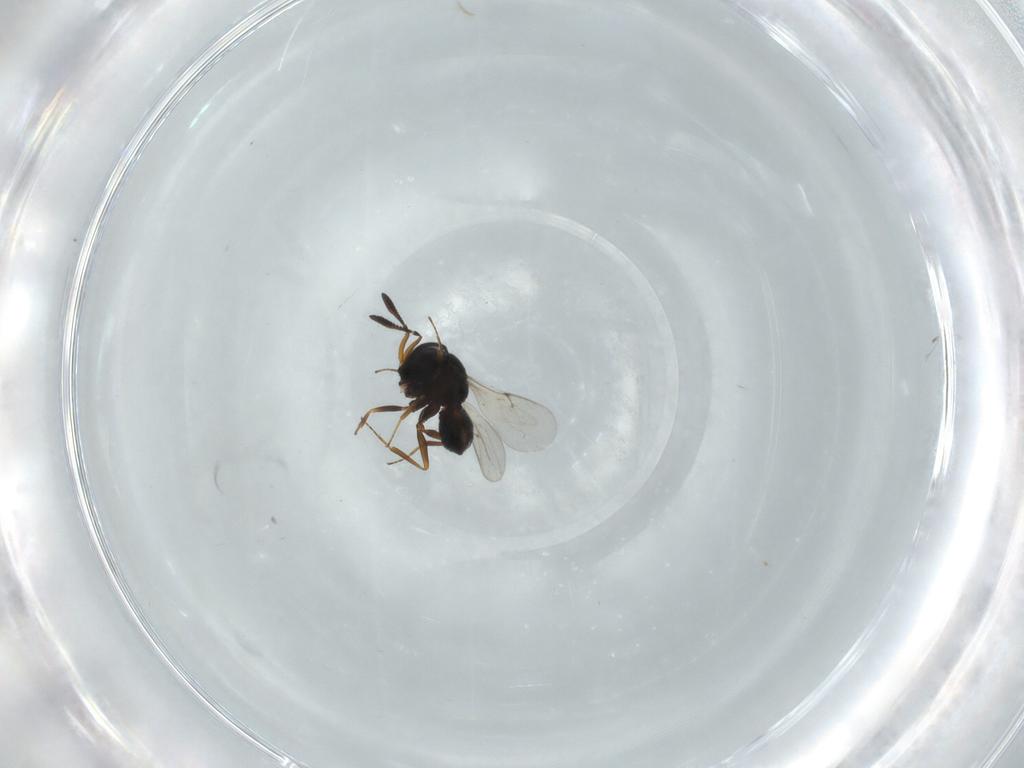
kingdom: Animalia
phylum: Arthropoda
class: Insecta
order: Hymenoptera
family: Scelionidae
